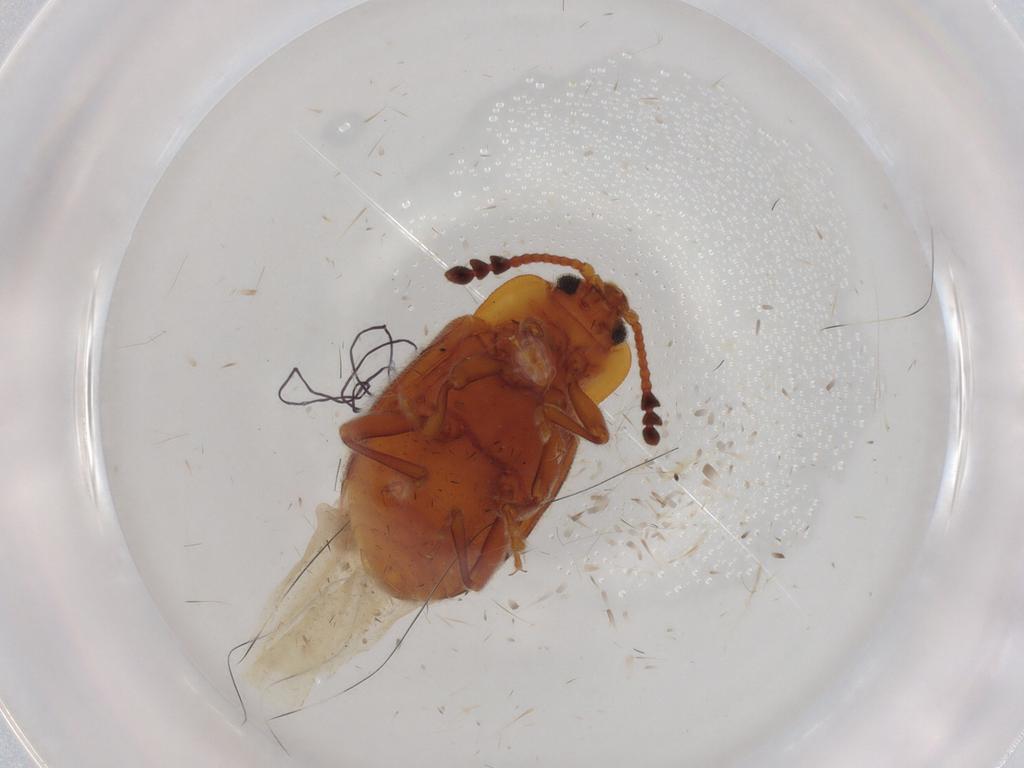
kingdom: Animalia
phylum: Arthropoda
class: Insecta
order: Coleoptera
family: Endomychidae
